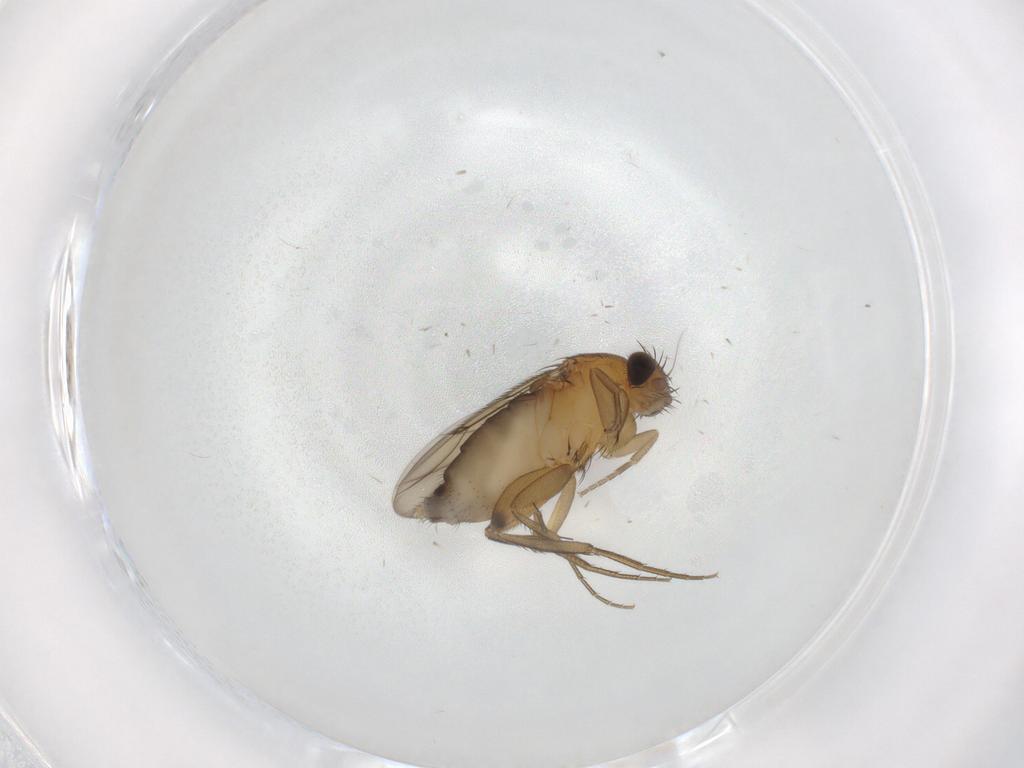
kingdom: Animalia
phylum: Arthropoda
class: Insecta
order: Diptera
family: Phoridae
